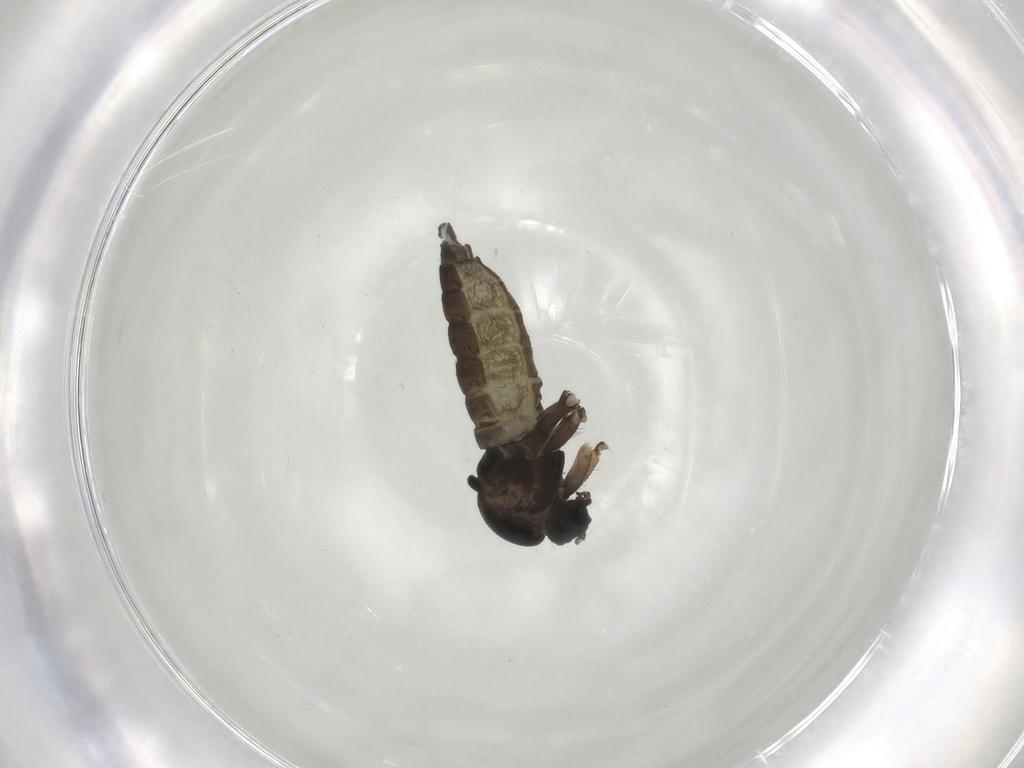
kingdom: Animalia
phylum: Arthropoda
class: Insecta
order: Diptera
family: Sciaridae
